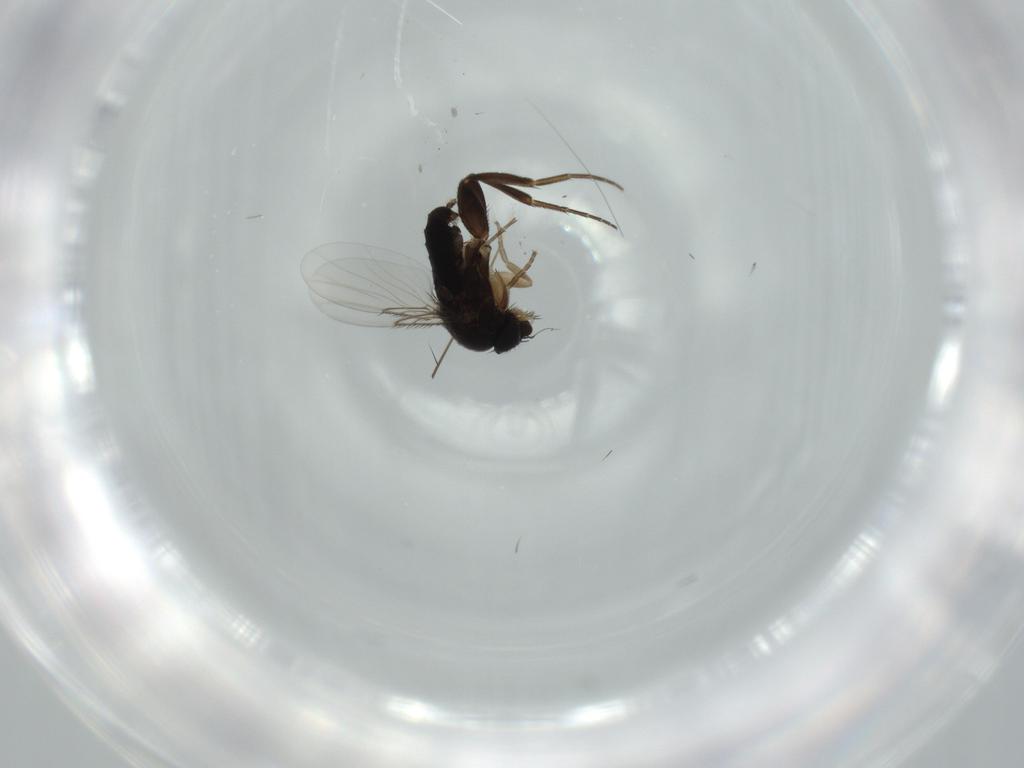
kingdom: Animalia
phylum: Arthropoda
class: Insecta
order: Diptera
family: Phoridae
